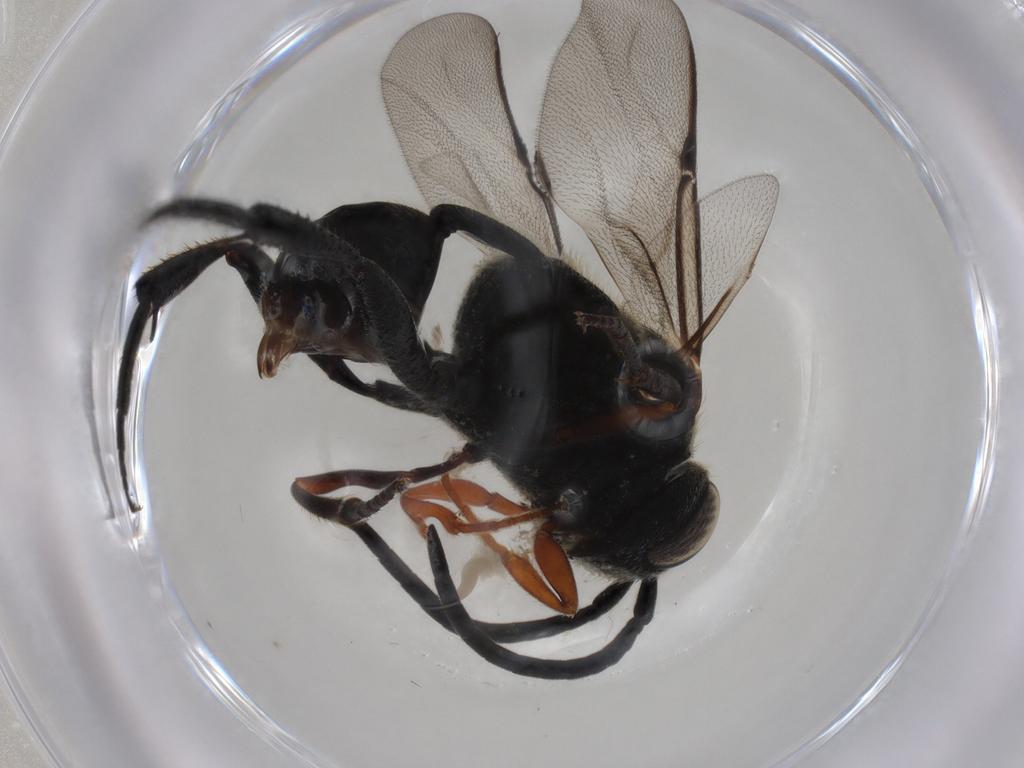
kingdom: Animalia
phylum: Arthropoda
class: Insecta
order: Hymenoptera
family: Evaniidae
